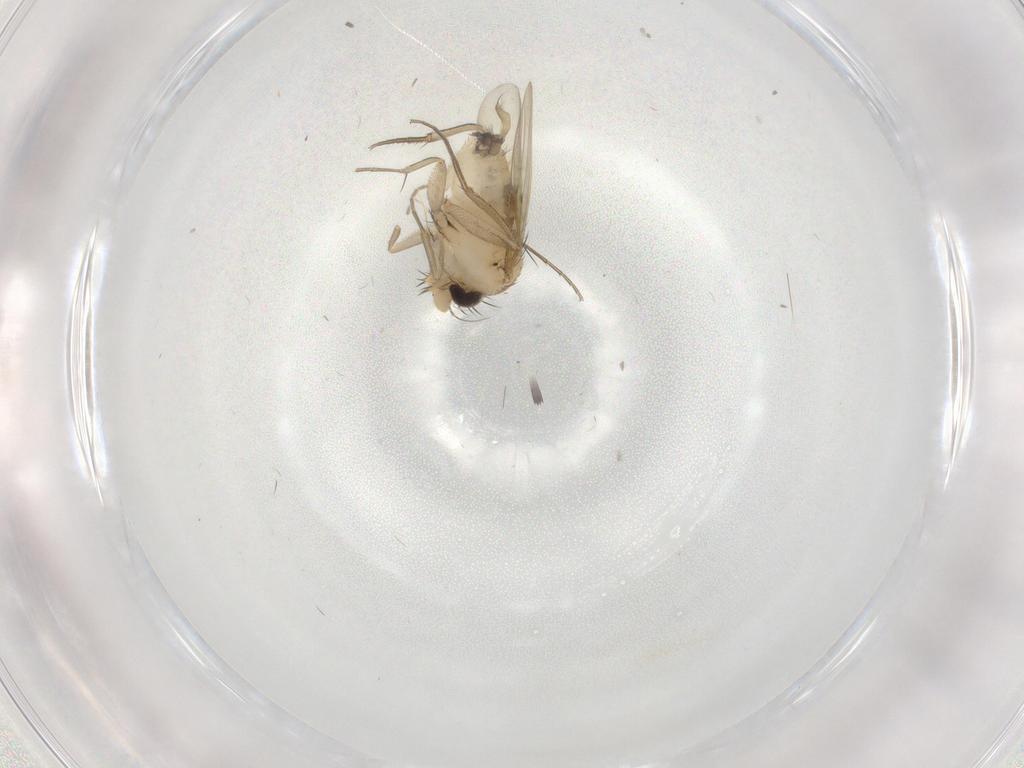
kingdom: Animalia
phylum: Arthropoda
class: Insecta
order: Diptera
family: Phoridae
